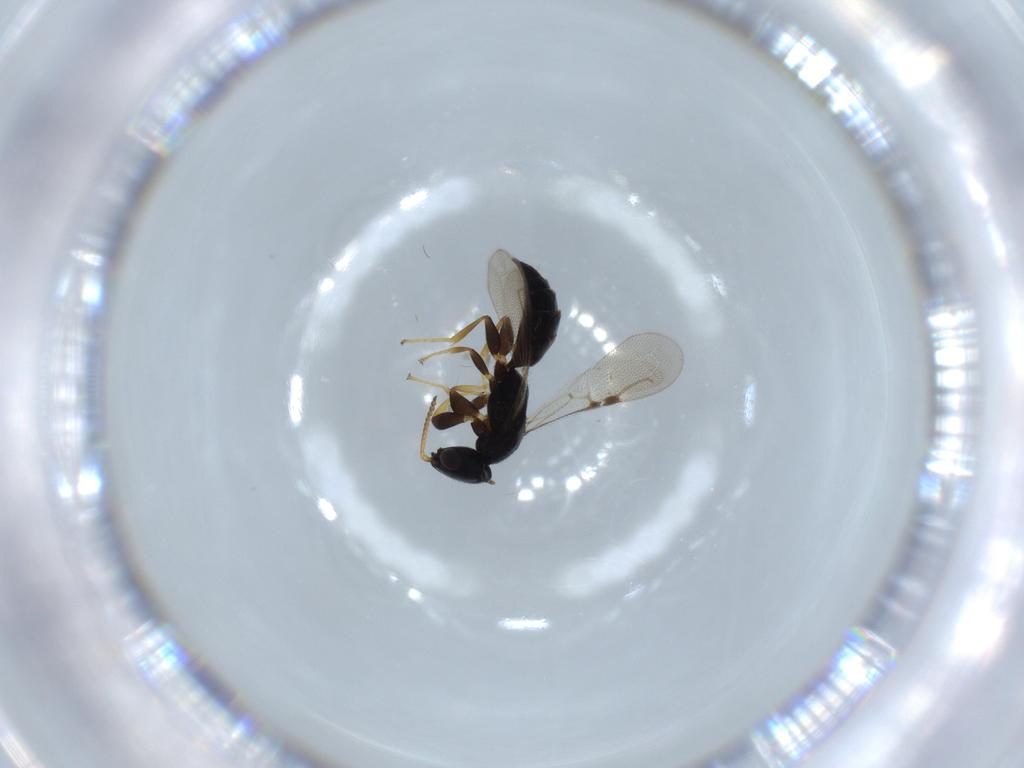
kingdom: Animalia
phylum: Arthropoda
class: Insecta
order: Hymenoptera
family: Bethylidae
